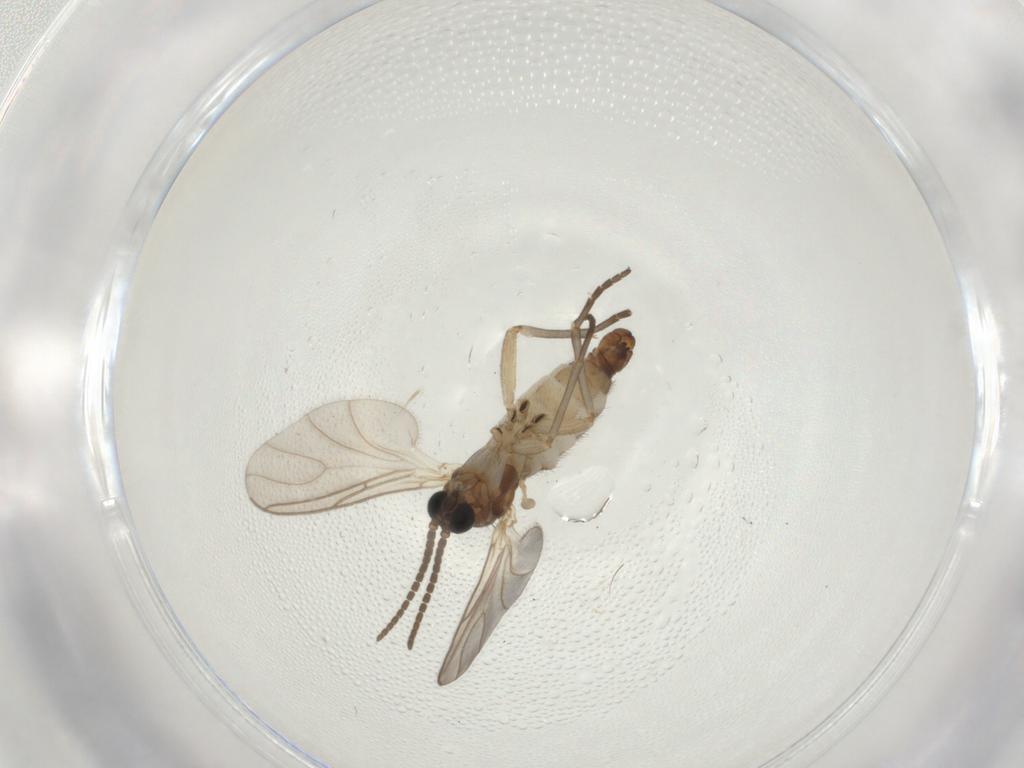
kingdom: Animalia
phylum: Arthropoda
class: Insecta
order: Diptera
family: Sciaridae
